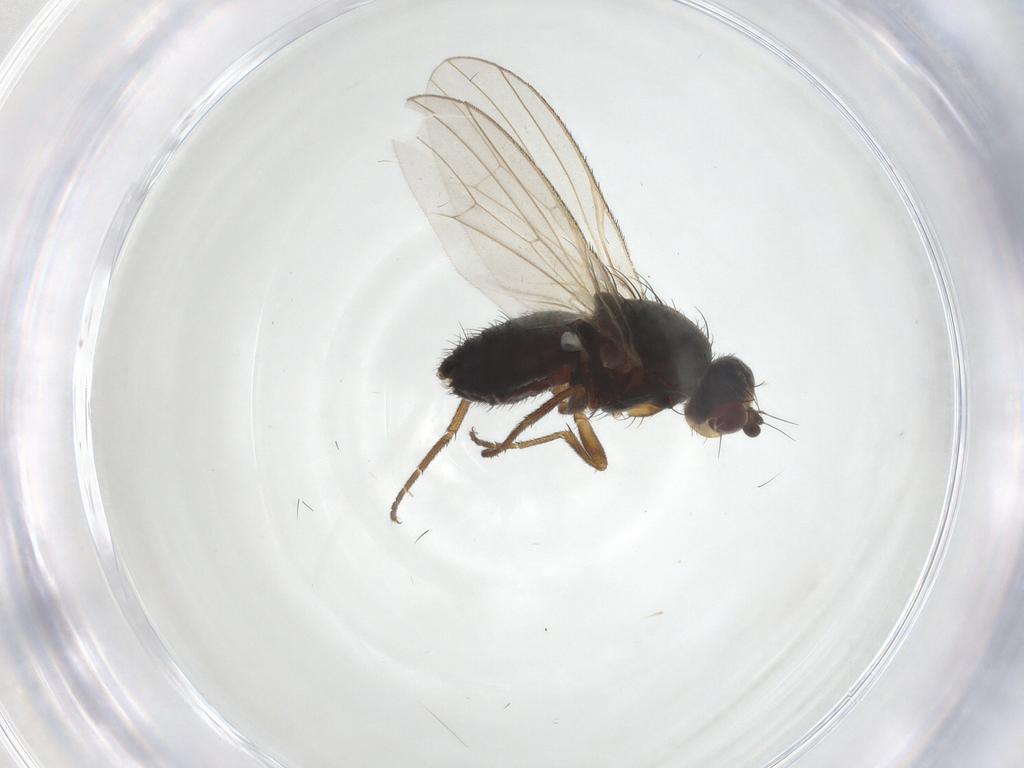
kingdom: Animalia
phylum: Arthropoda
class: Insecta
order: Diptera
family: Heleomyzidae
